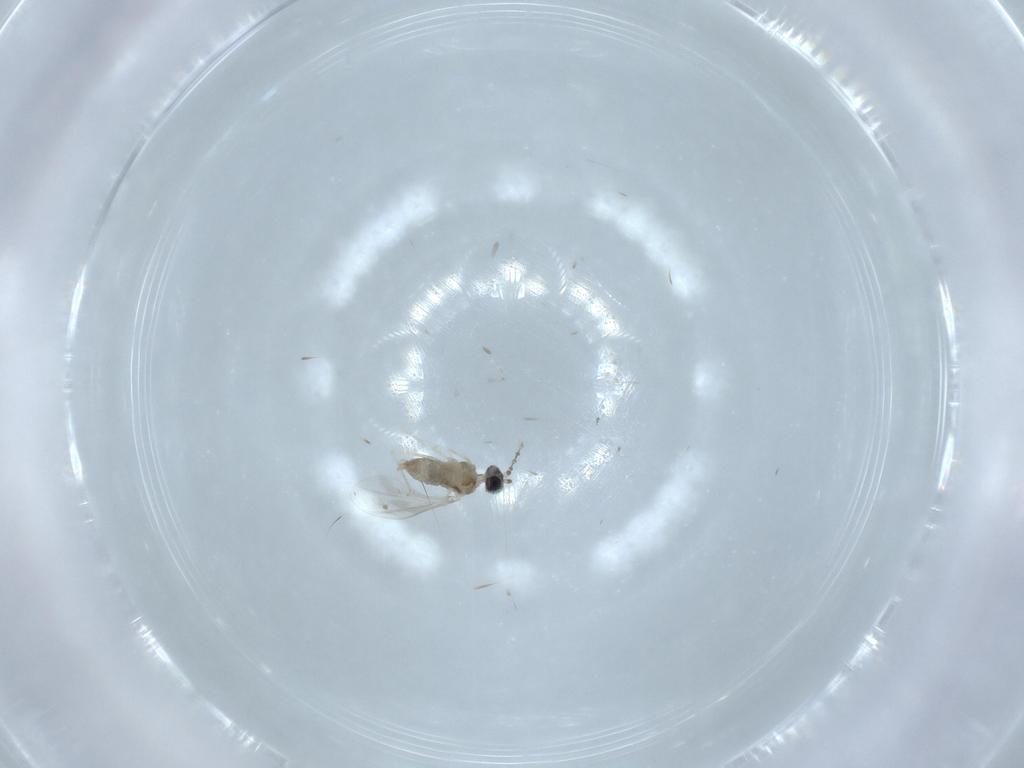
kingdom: Animalia
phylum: Arthropoda
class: Insecta
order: Diptera
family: Cecidomyiidae
